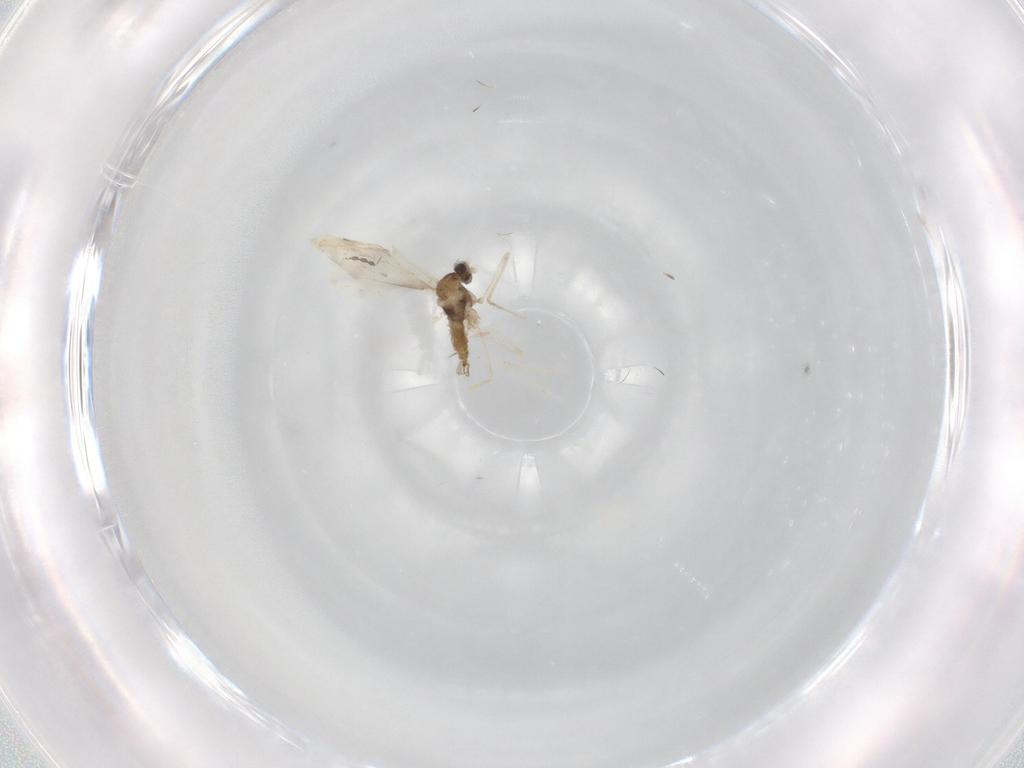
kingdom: Animalia
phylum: Arthropoda
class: Insecta
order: Diptera
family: Cecidomyiidae
